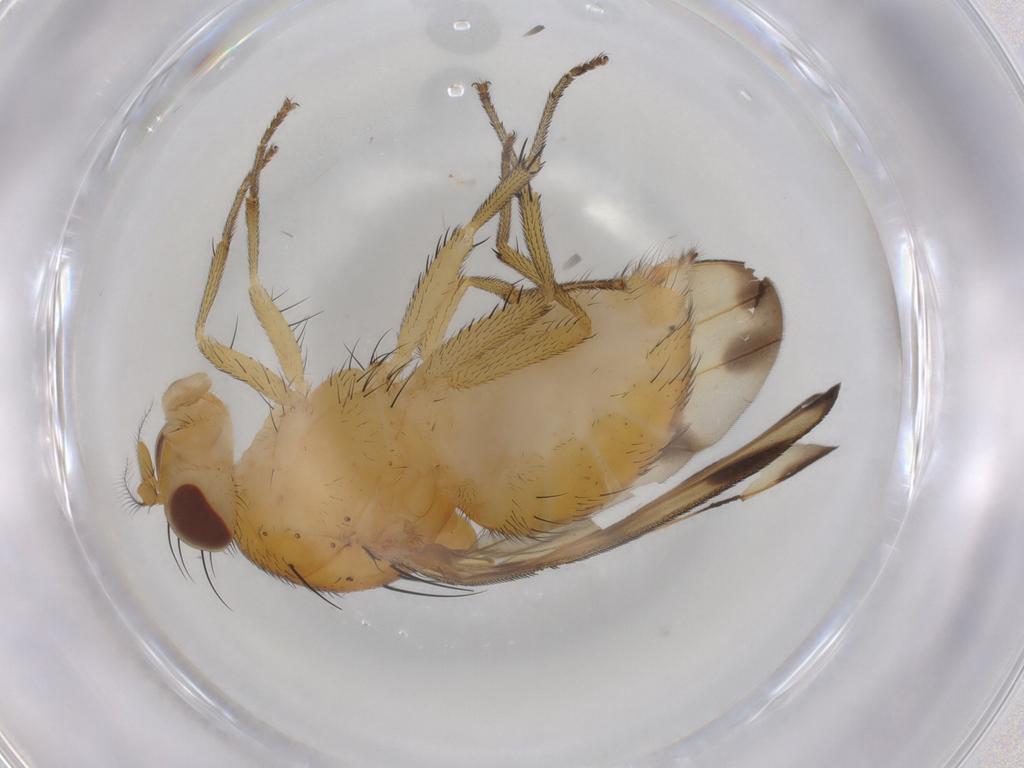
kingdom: Animalia
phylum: Arthropoda
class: Insecta
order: Diptera
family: Lauxaniidae
